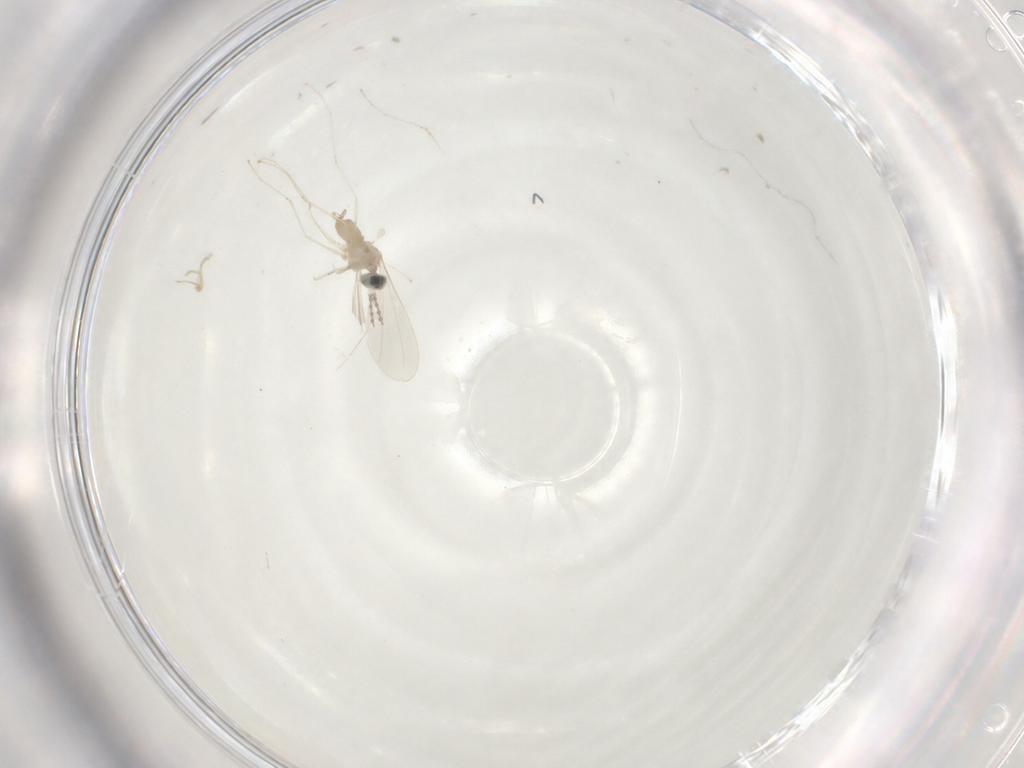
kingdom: Animalia
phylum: Arthropoda
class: Insecta
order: Diptera
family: Cecidomyiidae
